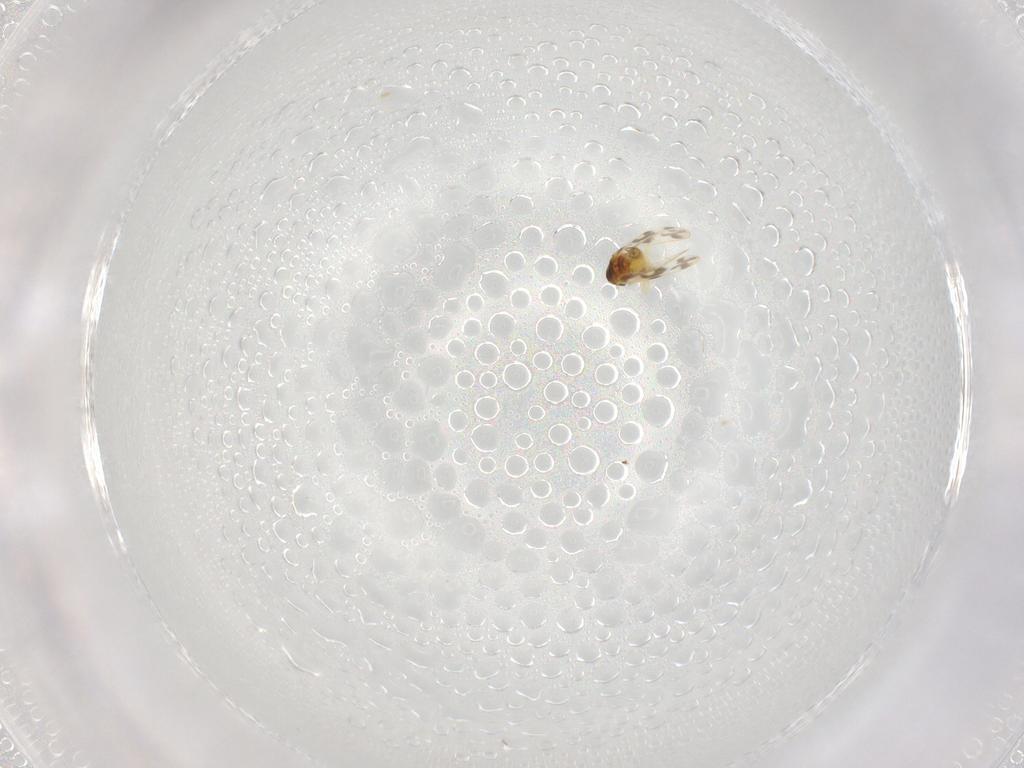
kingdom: Animalia
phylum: Arthropoda
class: Insecta
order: Hemiptera
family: Aleyrodidae
